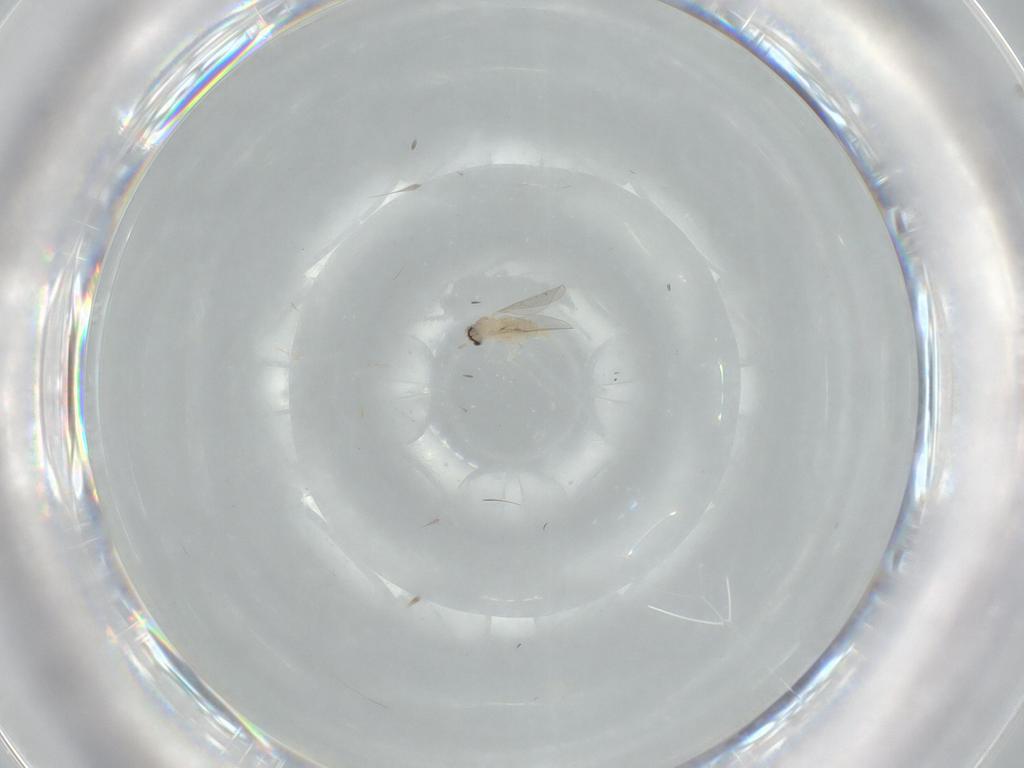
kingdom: Animalia
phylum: Arthropoda
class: Insecta
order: Diptera
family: Cecidomyiidae
